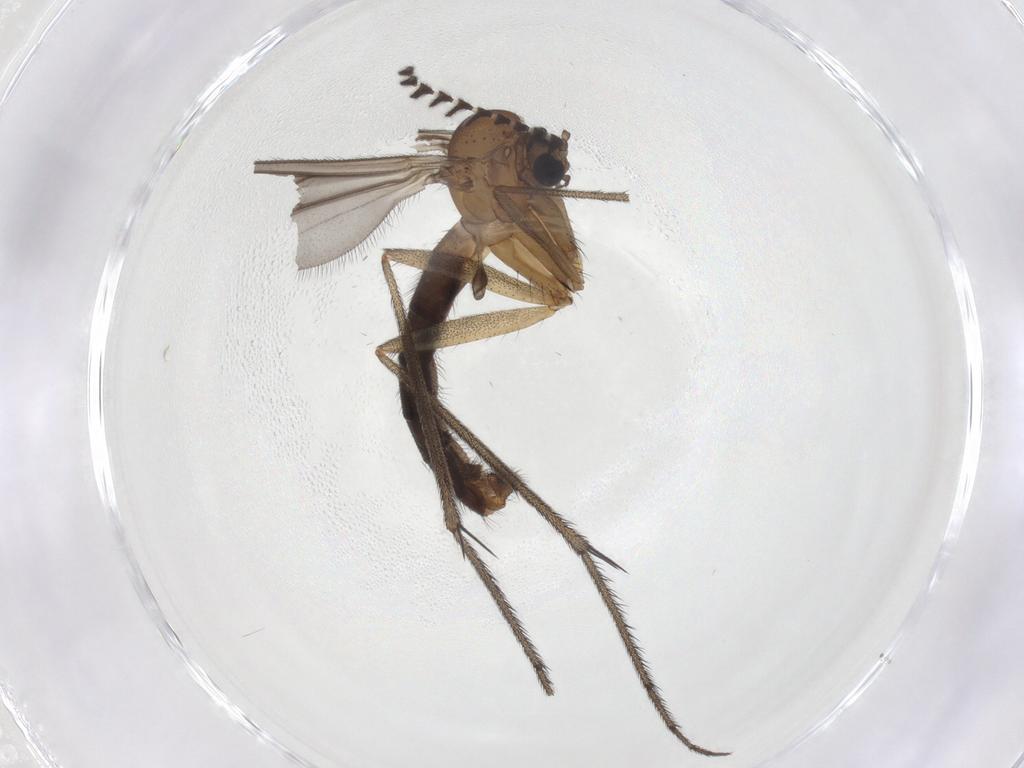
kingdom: Animalia
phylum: Arthropoda
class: Insecta
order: Diptera
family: Ditomyiidae
